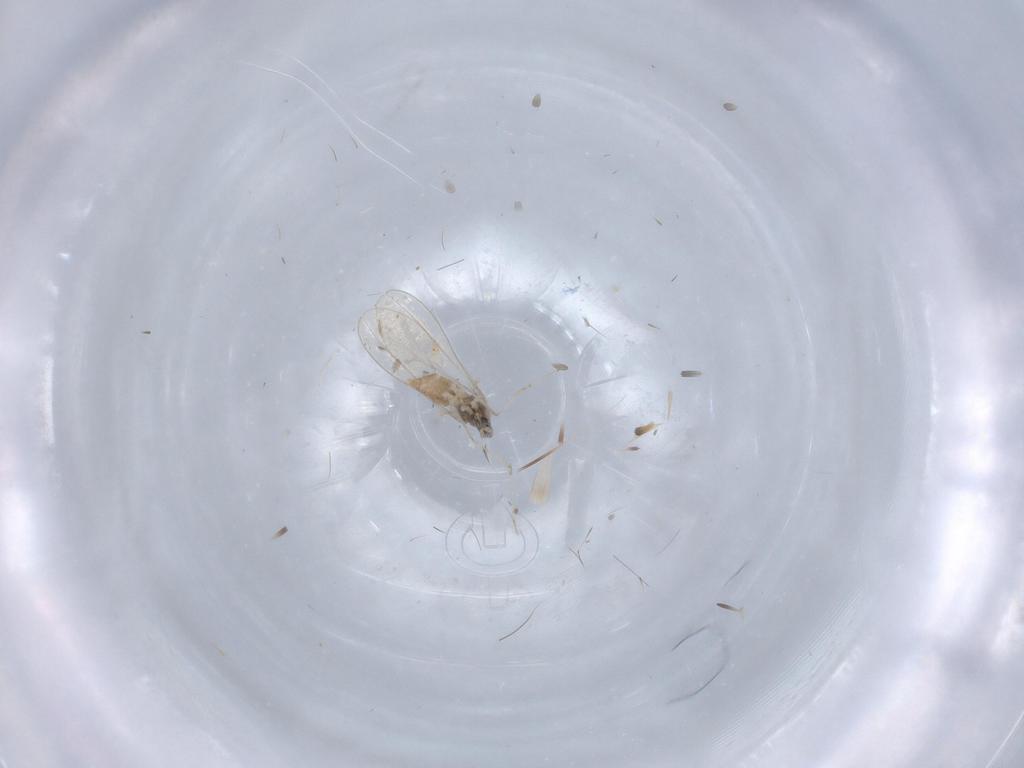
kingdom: Animalia
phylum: Arthropoda
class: Insecta
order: Diptera
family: Cecidomyiidae
